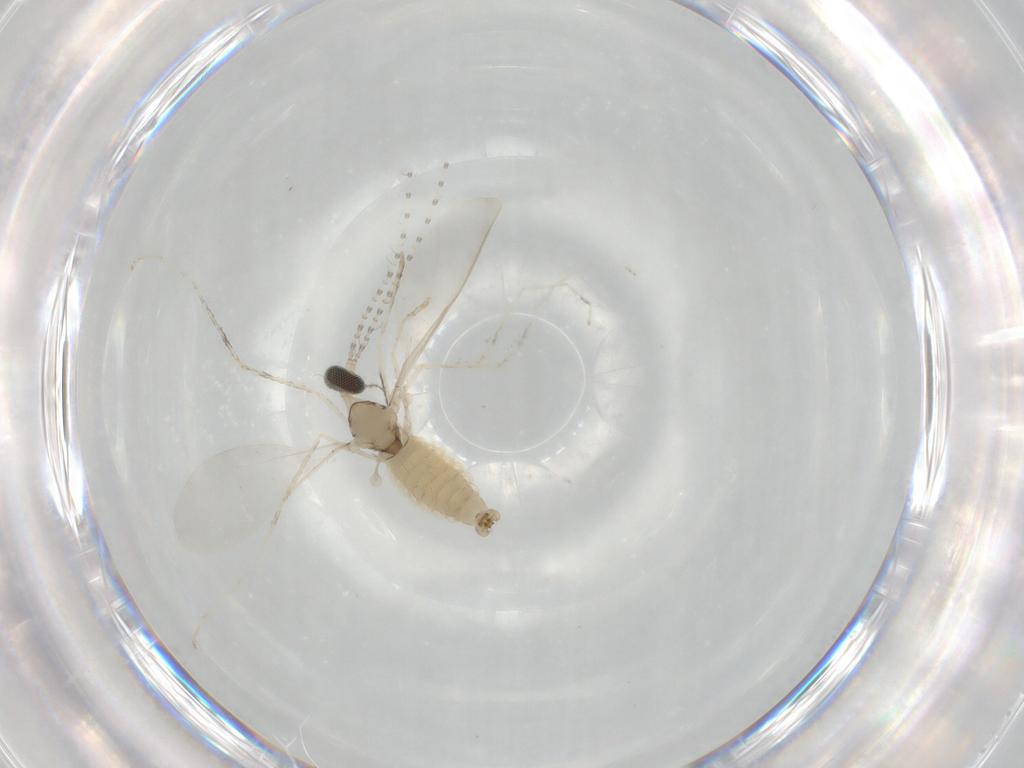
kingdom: Animalia
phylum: Arthropoda
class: Insecta
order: Diptera
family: Cecidomyiidae
